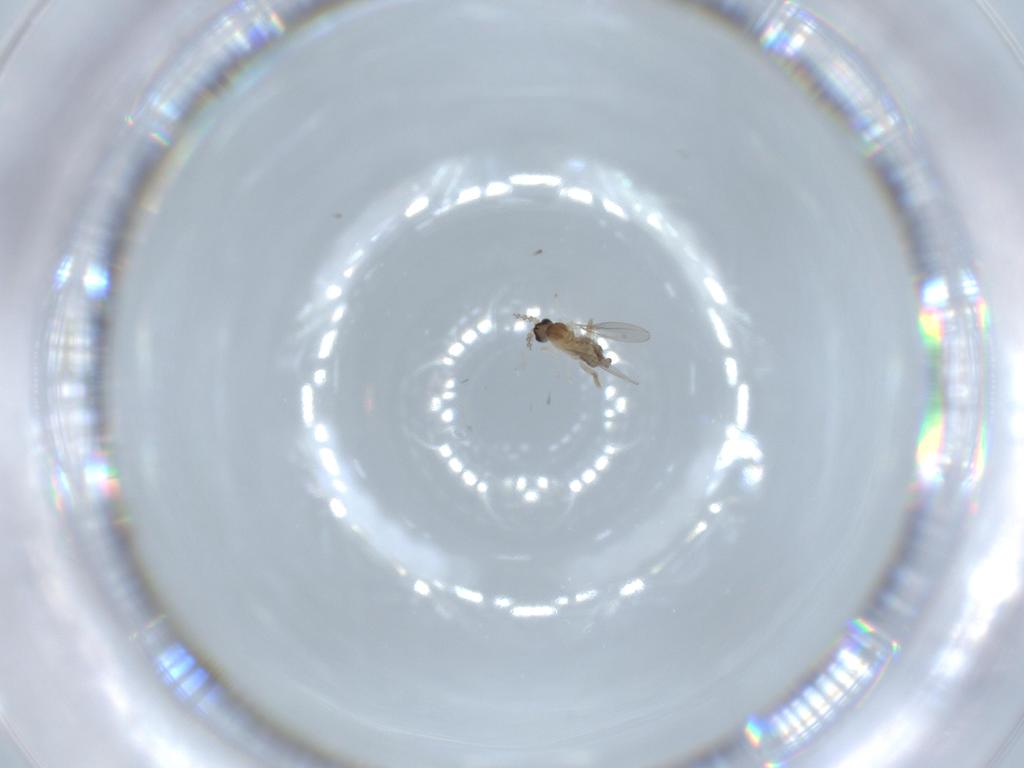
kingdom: Animalia
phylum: Arthropoda
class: Insecta
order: Diptera
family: Cecidomyiidae
